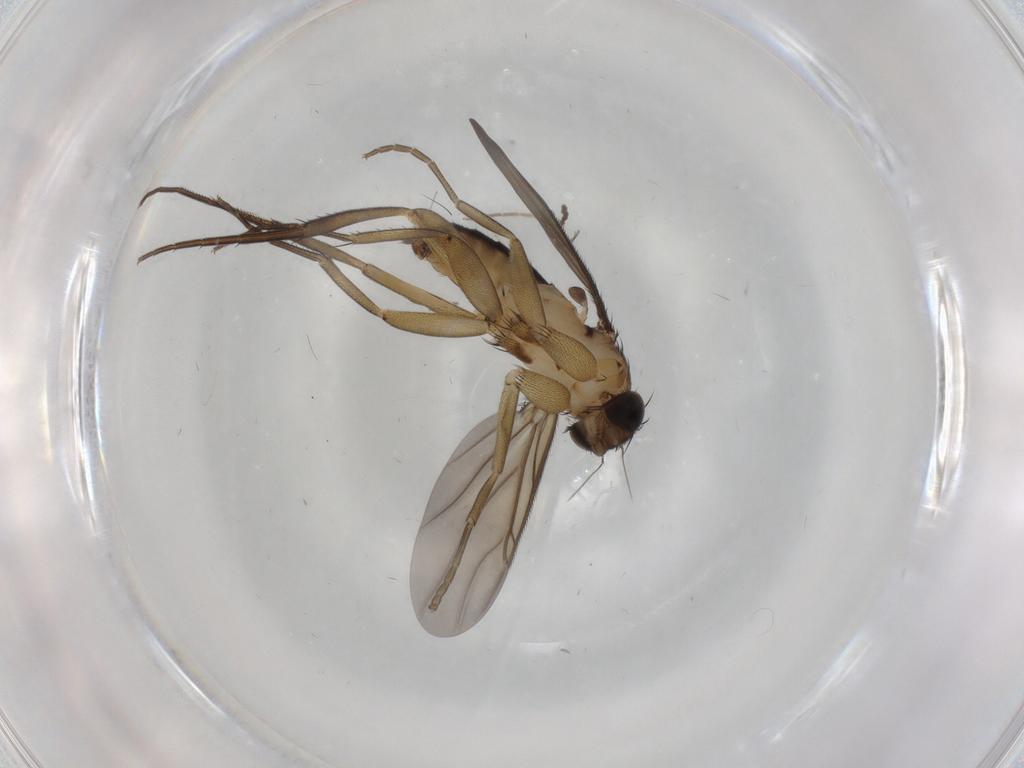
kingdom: Animalia
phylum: Arthropoda
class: Insecta
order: Diptera
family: Phoridae
